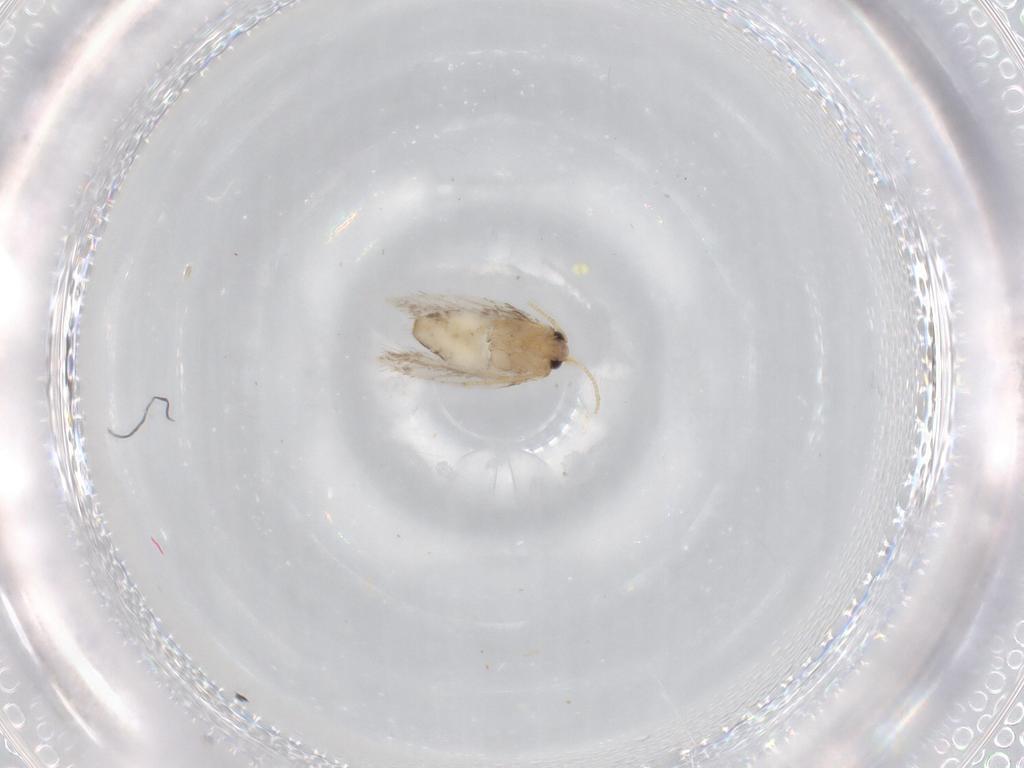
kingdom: Animalia
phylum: Arthropoda
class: Insecta
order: Lepidoptera
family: Nepticulidae
